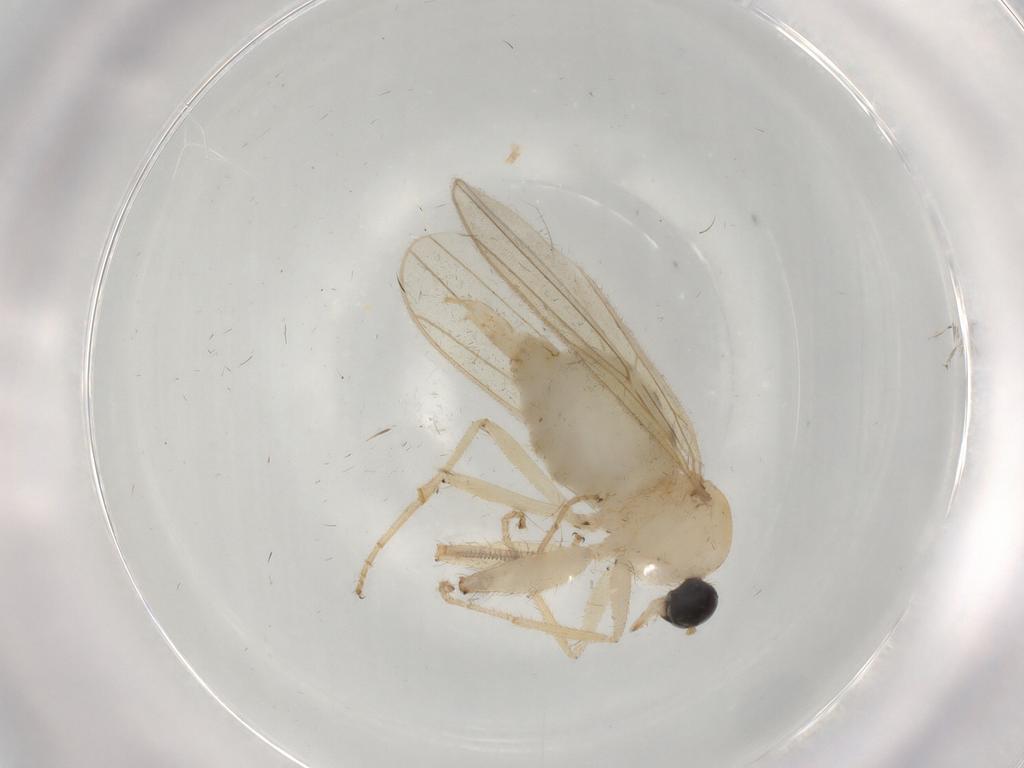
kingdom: Animalia
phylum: Arthropoda
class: Insecta
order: Diptera
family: Hybotidae
